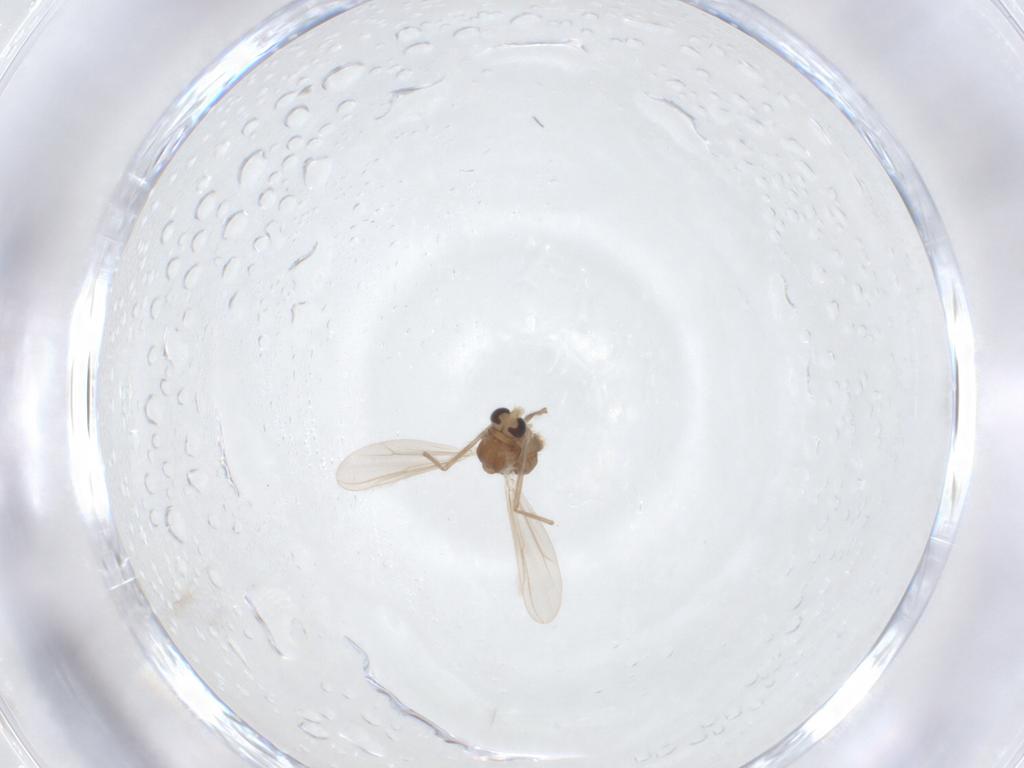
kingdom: Animalia
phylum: Arthropoda
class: Insecta
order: Diptera
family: Chironomidae
